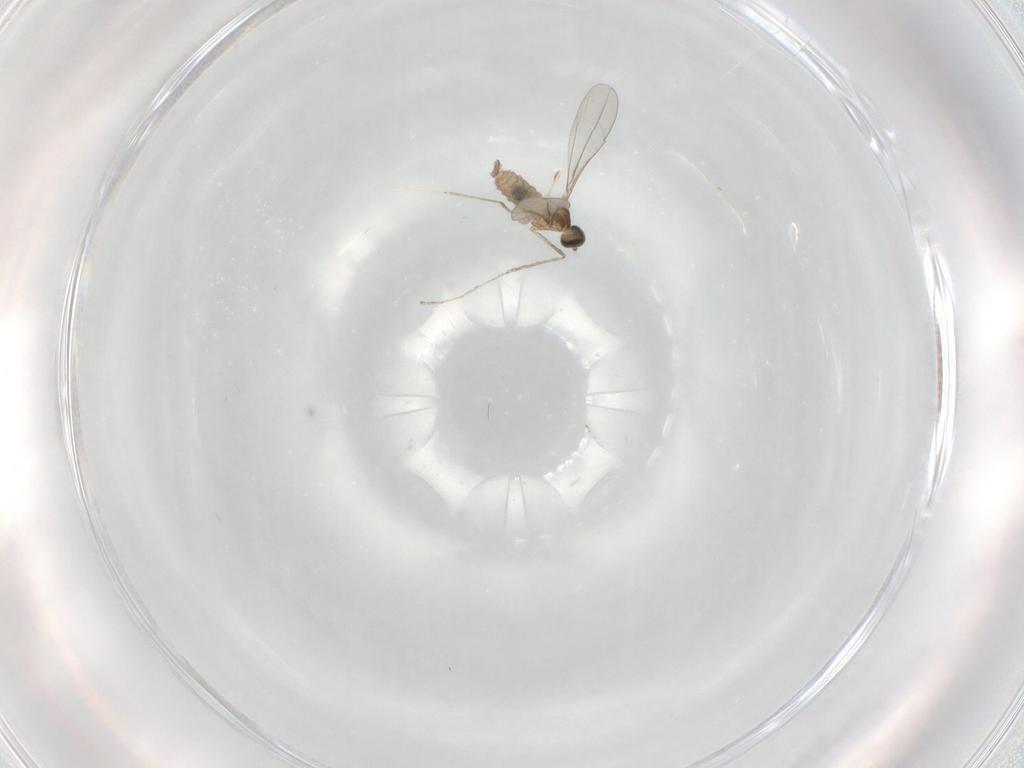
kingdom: Animalia
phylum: Arthropoda
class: Insecta
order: Diptera
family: Cecidomyiidae
